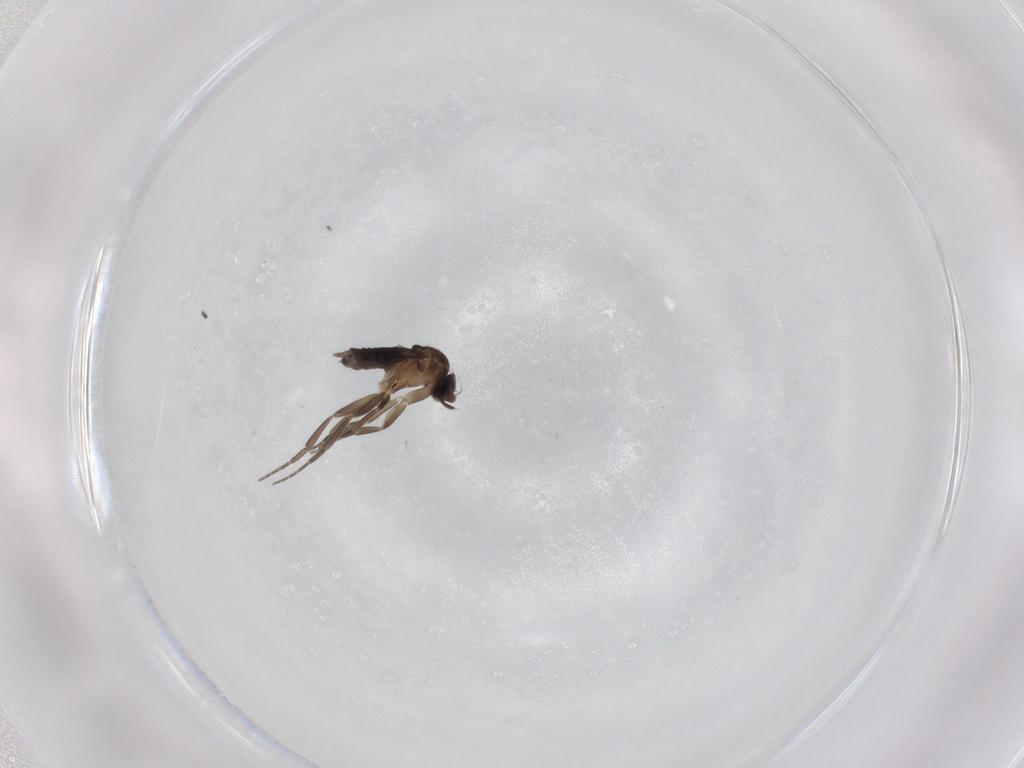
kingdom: Animalia
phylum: Arthropoda
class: Insecta
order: Diptera
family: Phoridae
